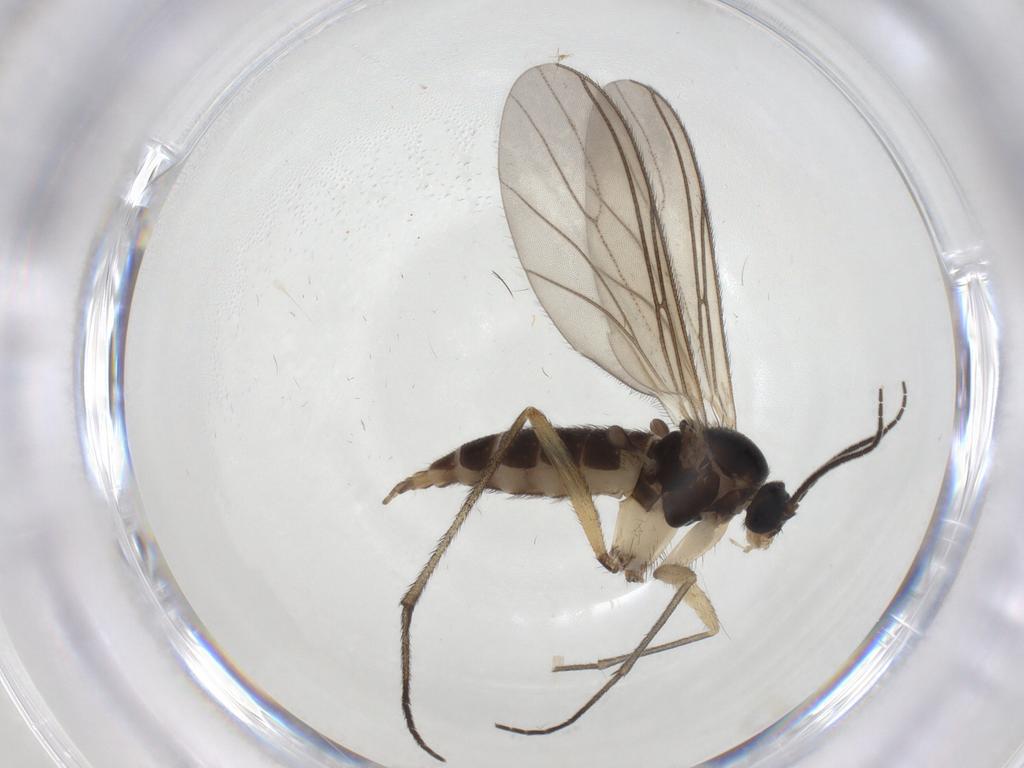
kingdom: Animalia
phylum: Arthropoda
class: Insecta
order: Diptera
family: Sciaridae
